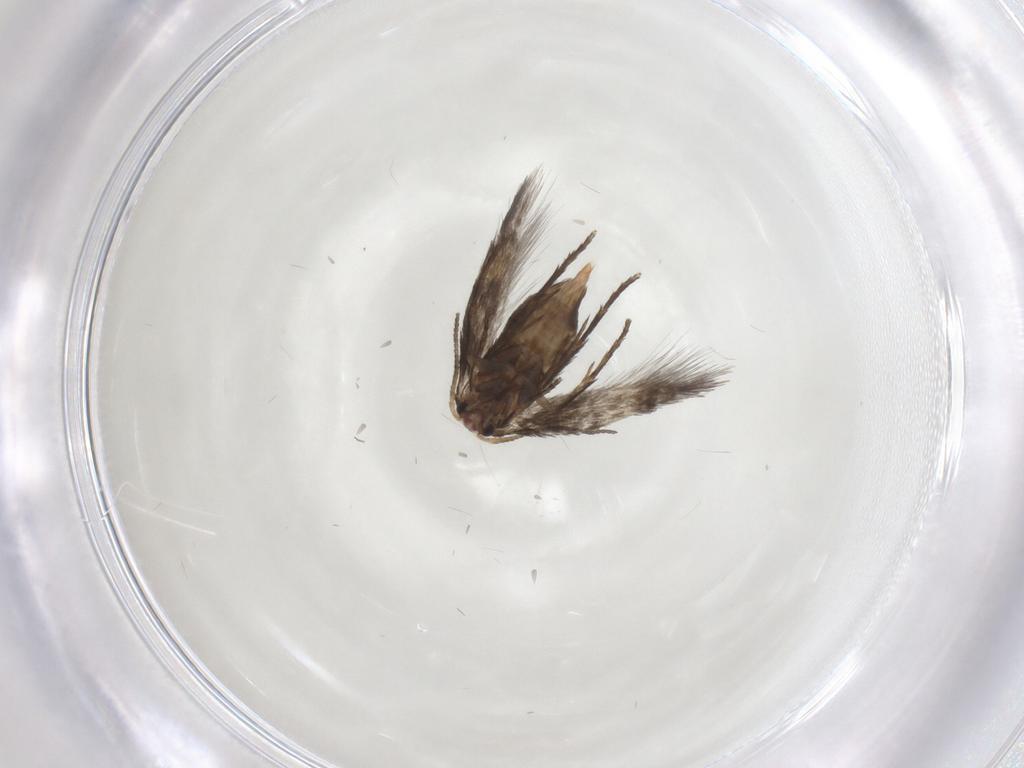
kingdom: Animalia
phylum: Arthropoda
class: Insecta
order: Lepidoptera
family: Nepticulidae
